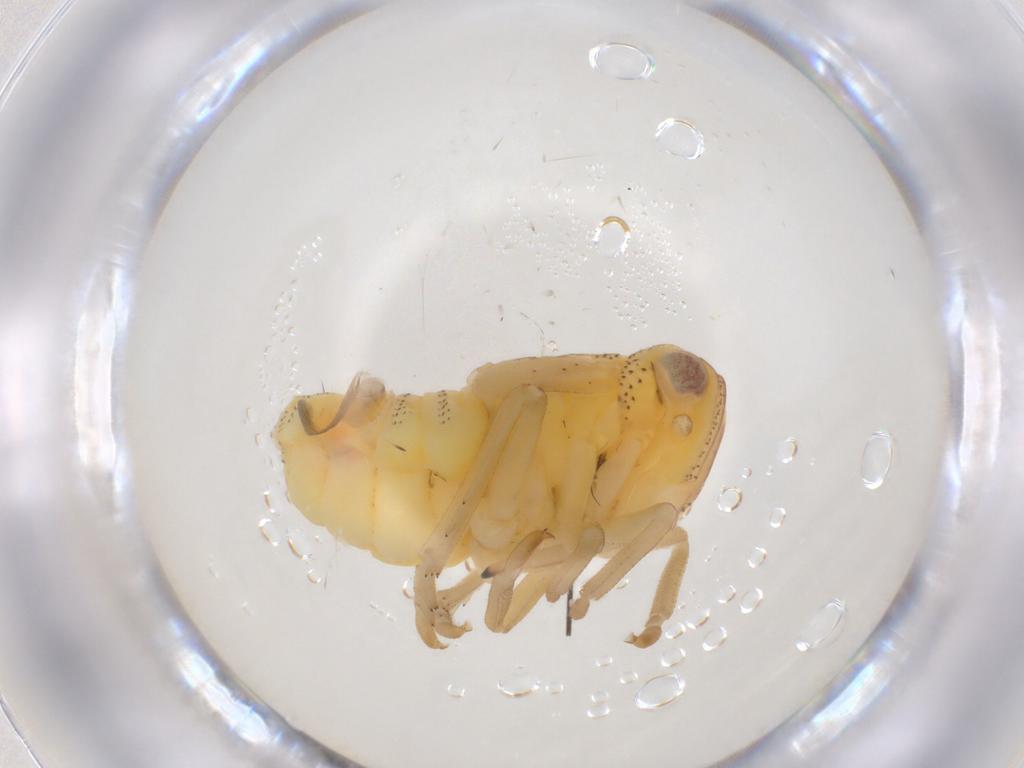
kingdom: Animalia
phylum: Arthropoda
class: Insecta
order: Hemiptera
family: Tropiduchidae
